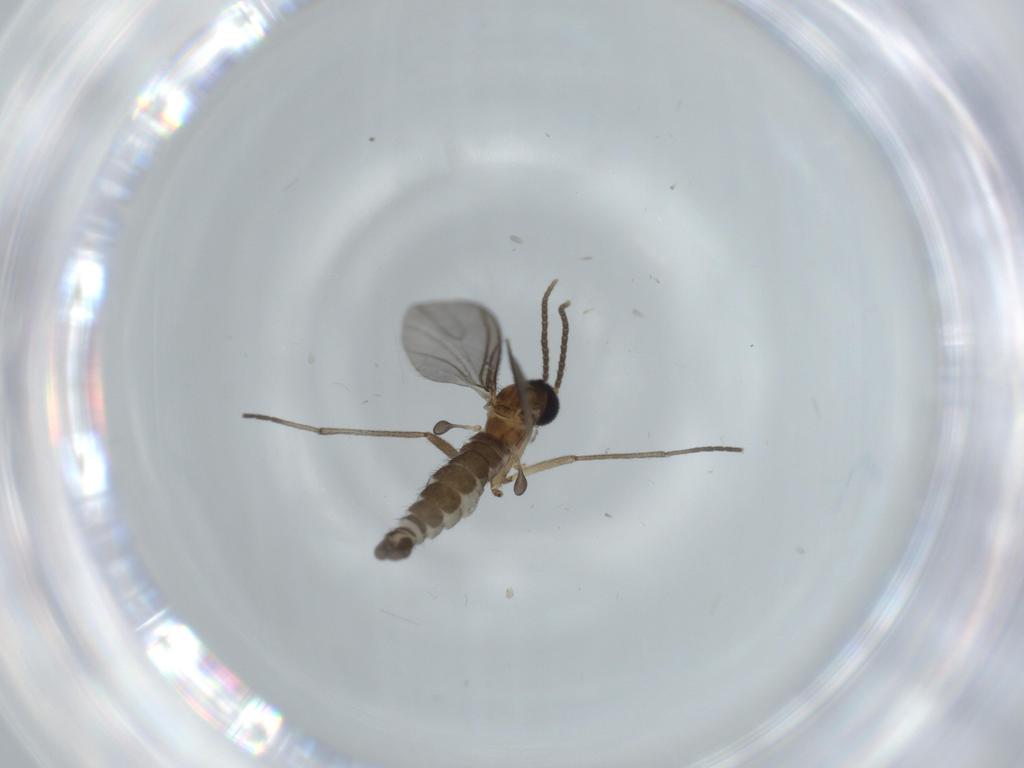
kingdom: Animalia
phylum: Arthropoda
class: Insecta
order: Diptera
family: Sciaridae
